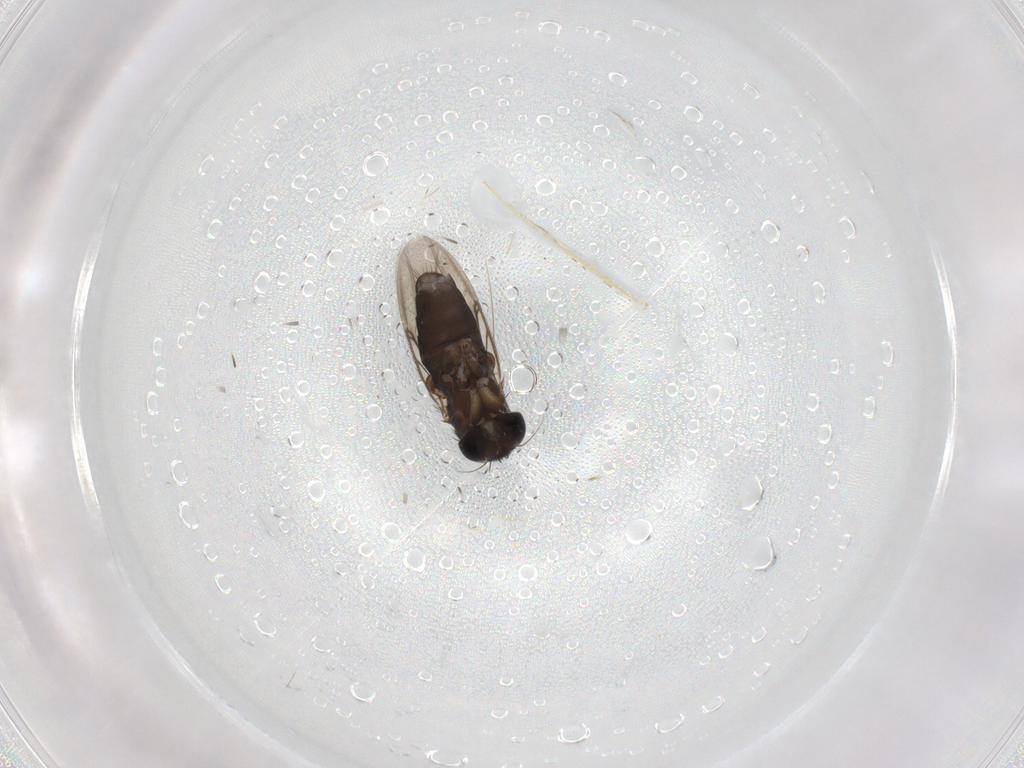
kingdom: Animalia
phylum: Arthropoda
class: Insecta
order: Diptera
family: Phoridae
